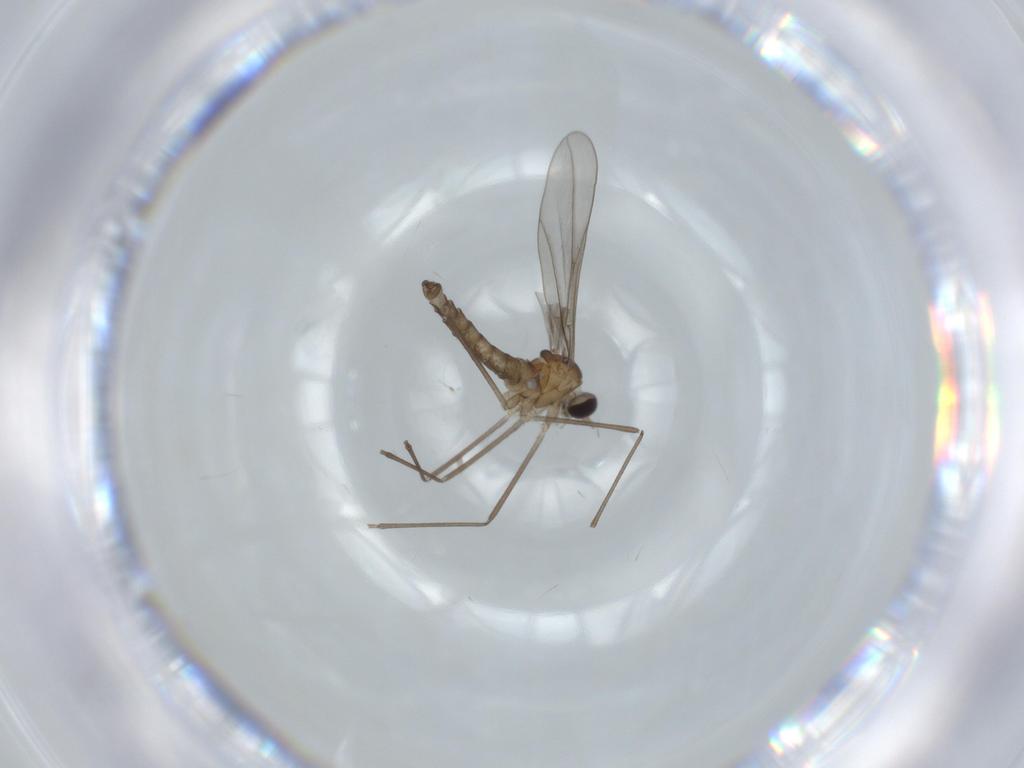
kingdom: Animalia
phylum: Arthropoda
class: Insecta
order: Diptera
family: Cecidomyiidae
